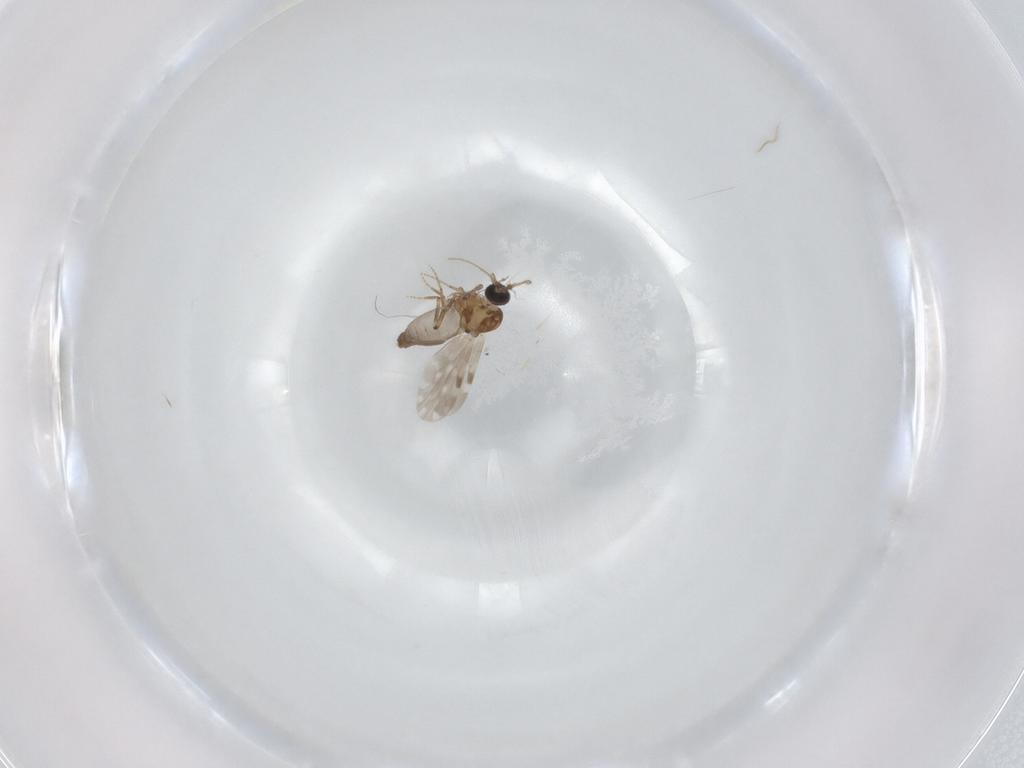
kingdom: Animalia
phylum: Arthropoda
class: Insecta
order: Diptera
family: Ceratopogonidae
